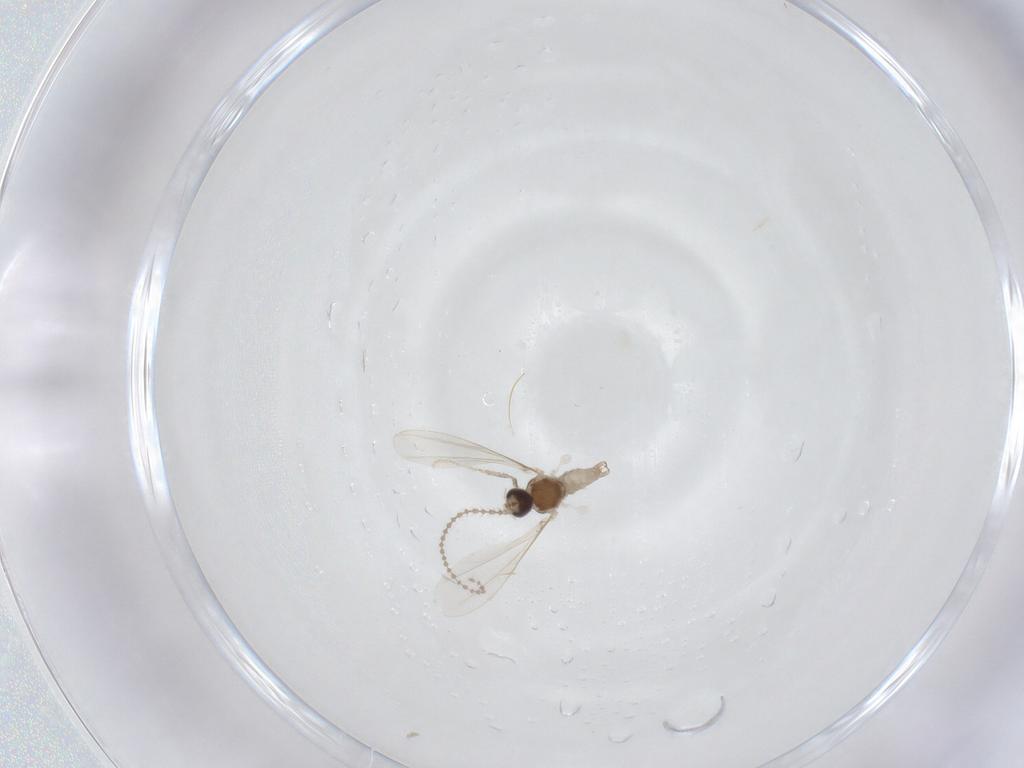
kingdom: Animalia
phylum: Arthropoda
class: Insecta
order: Diptera
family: Cecidomyiidae
